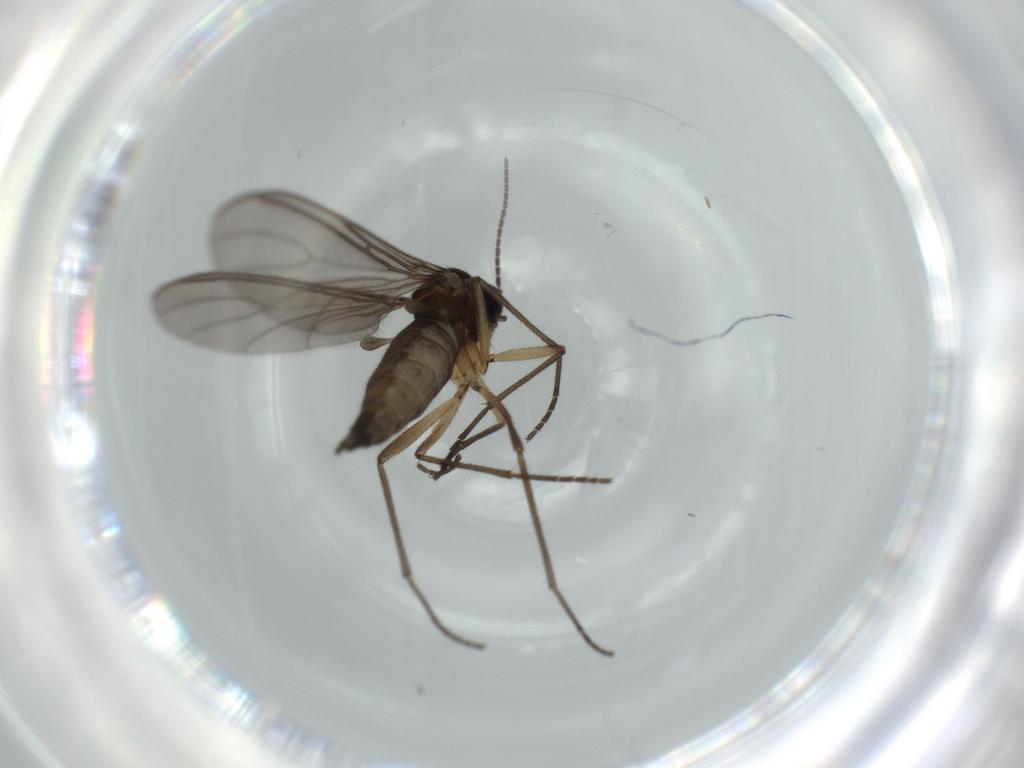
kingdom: Animalia
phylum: Arthropoda
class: Insecta
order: Diptera
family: Sciaridae
